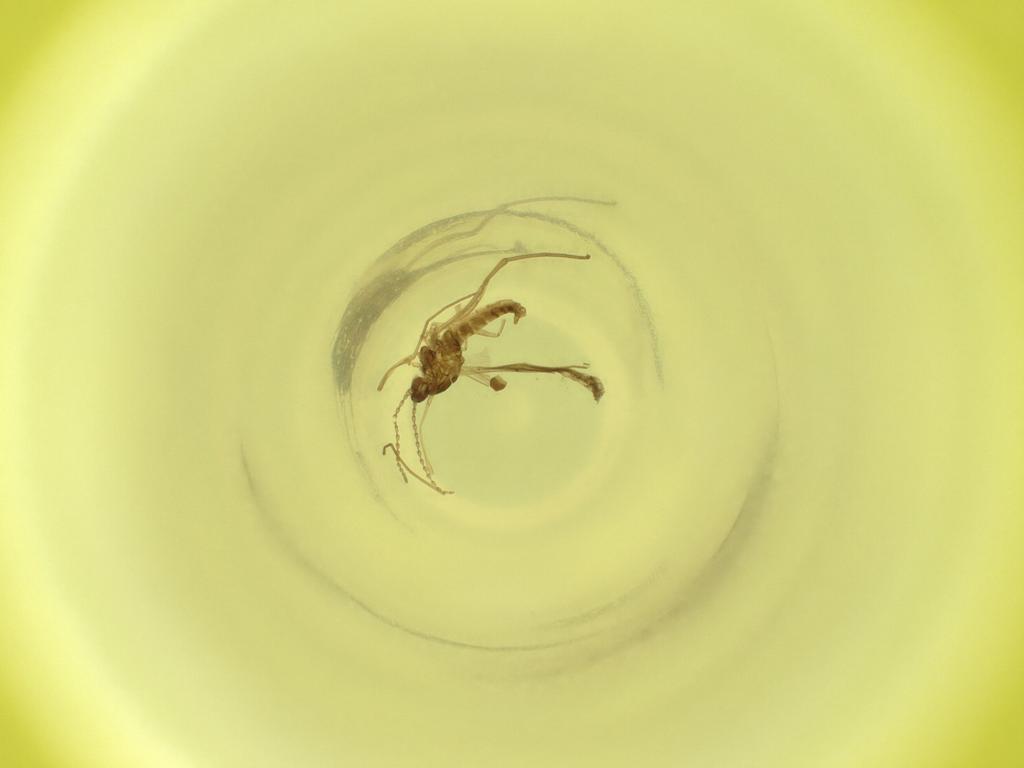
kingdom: Animalia
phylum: Arthropoda
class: Insecta
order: Diptera
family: Cecidomyiidae
